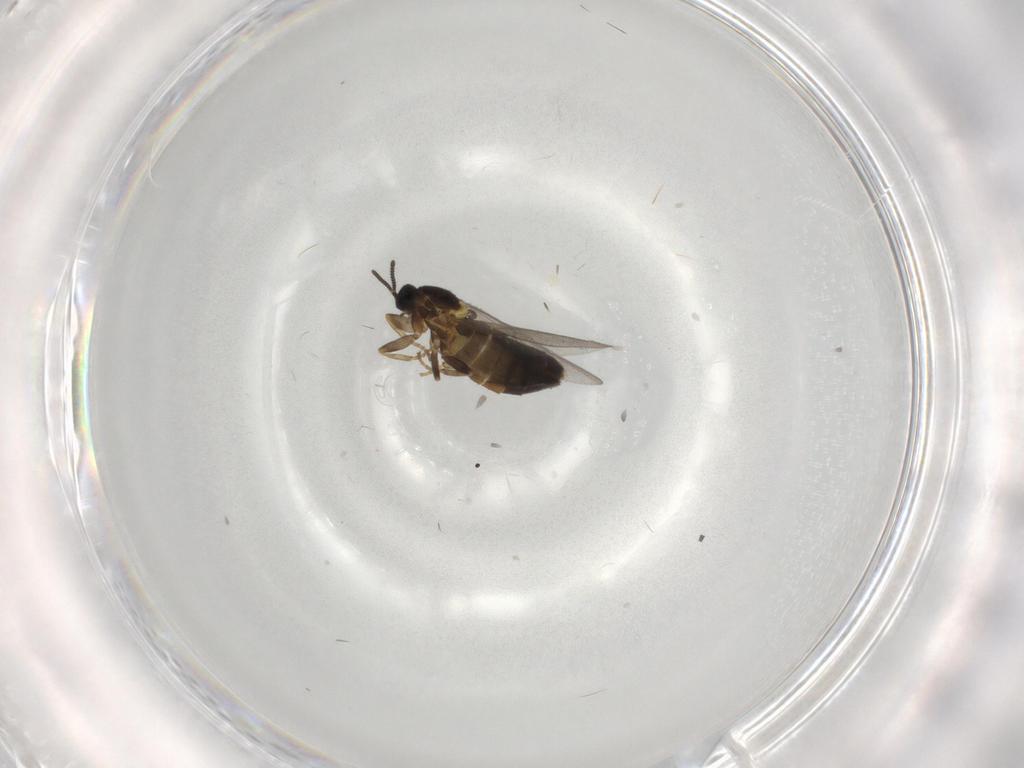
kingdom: Animalia
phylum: Arthropoda
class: Insecta
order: Diptera
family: Scatopsidae
